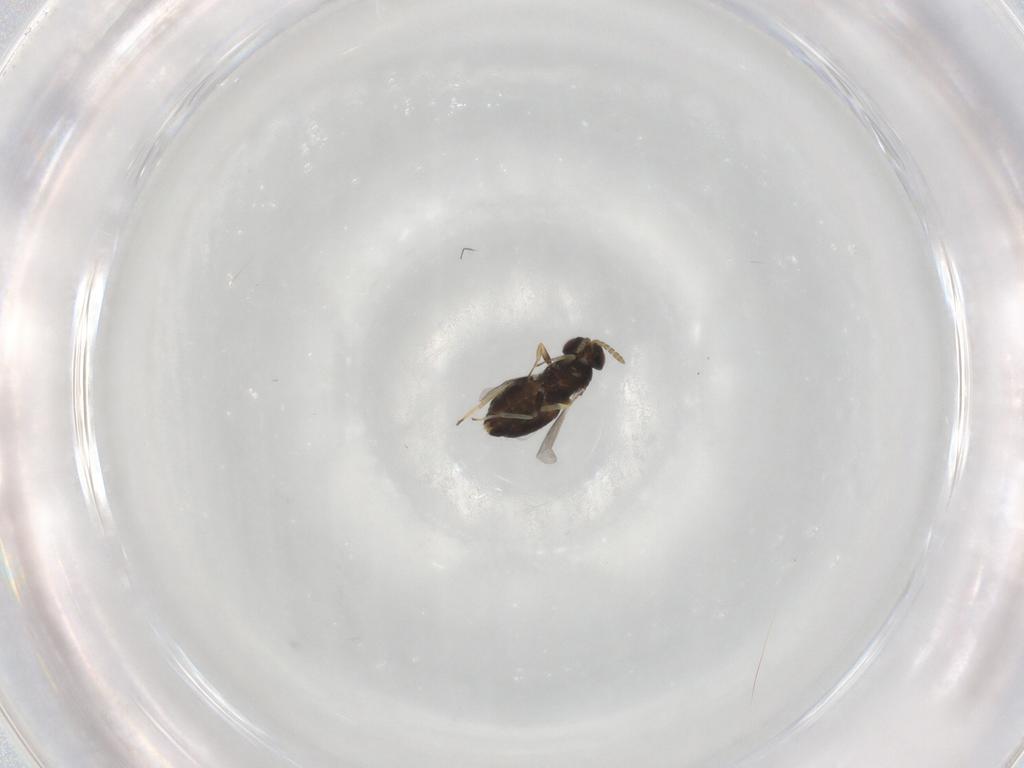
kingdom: Animalia
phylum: Arthropoda
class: Insecta
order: Hymenoptera
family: Aphelinidae
